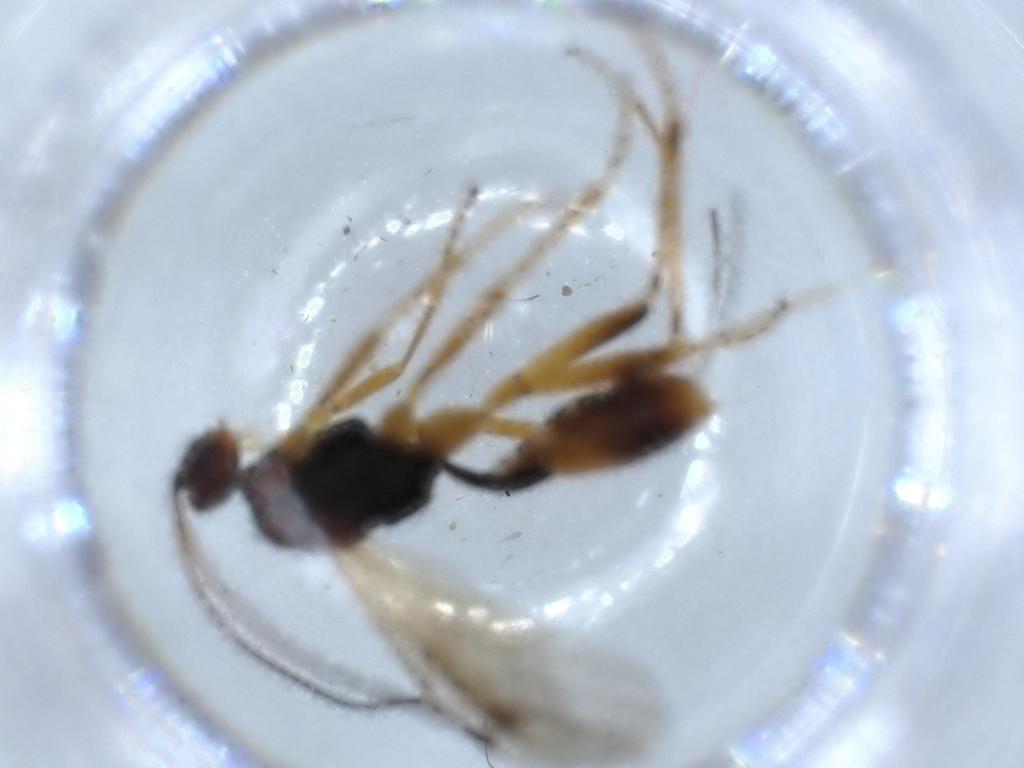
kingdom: Animalia
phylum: Arthropoda
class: Insecta
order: Hymenoptera
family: Braconidae
